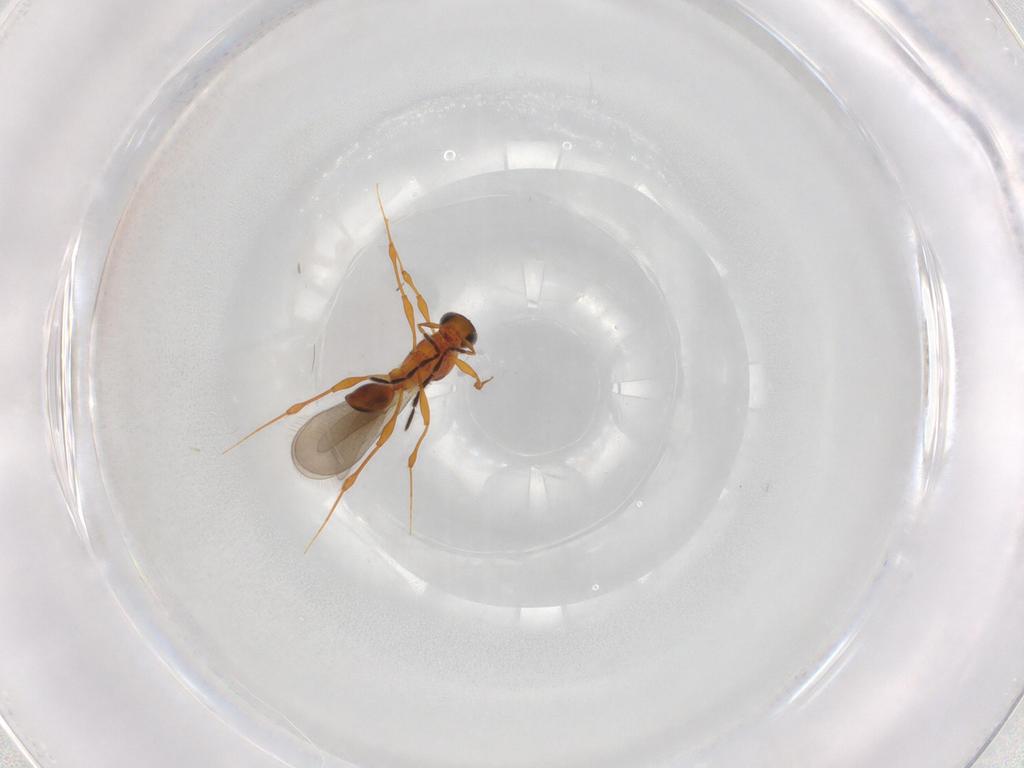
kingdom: Animalia
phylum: Arthropoda
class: Insecta
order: Hymenoptera
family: Platygastridae
